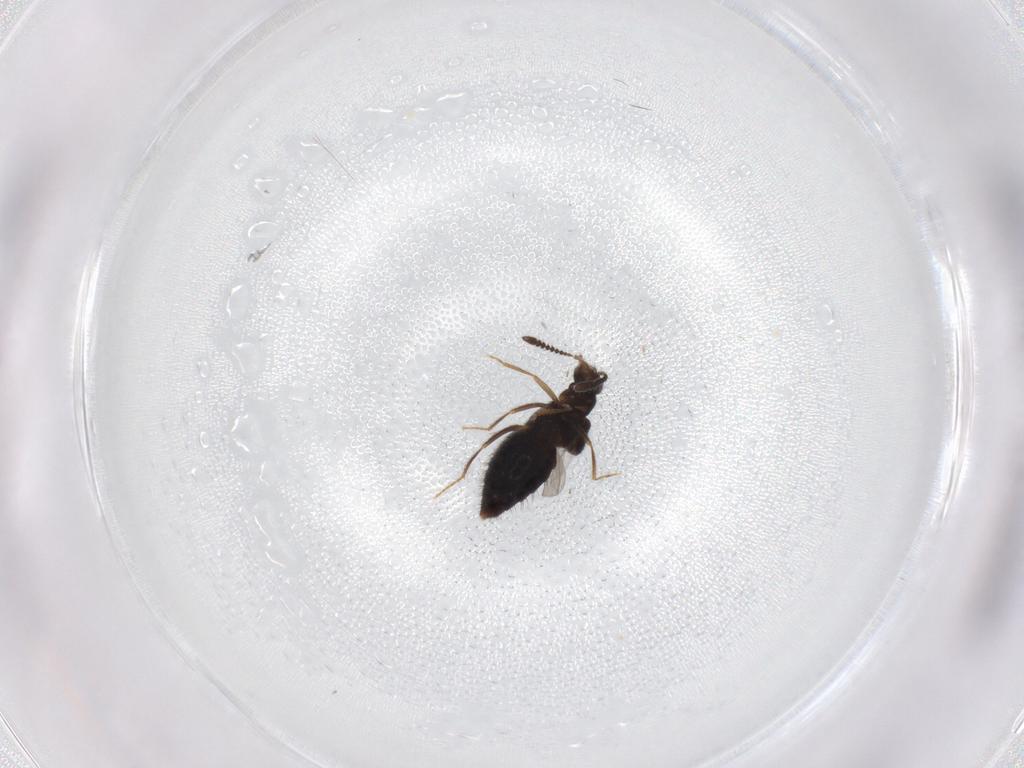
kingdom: Animalia
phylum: Arthropoda
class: Insecta
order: Coleoptera
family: Staphylinidae
